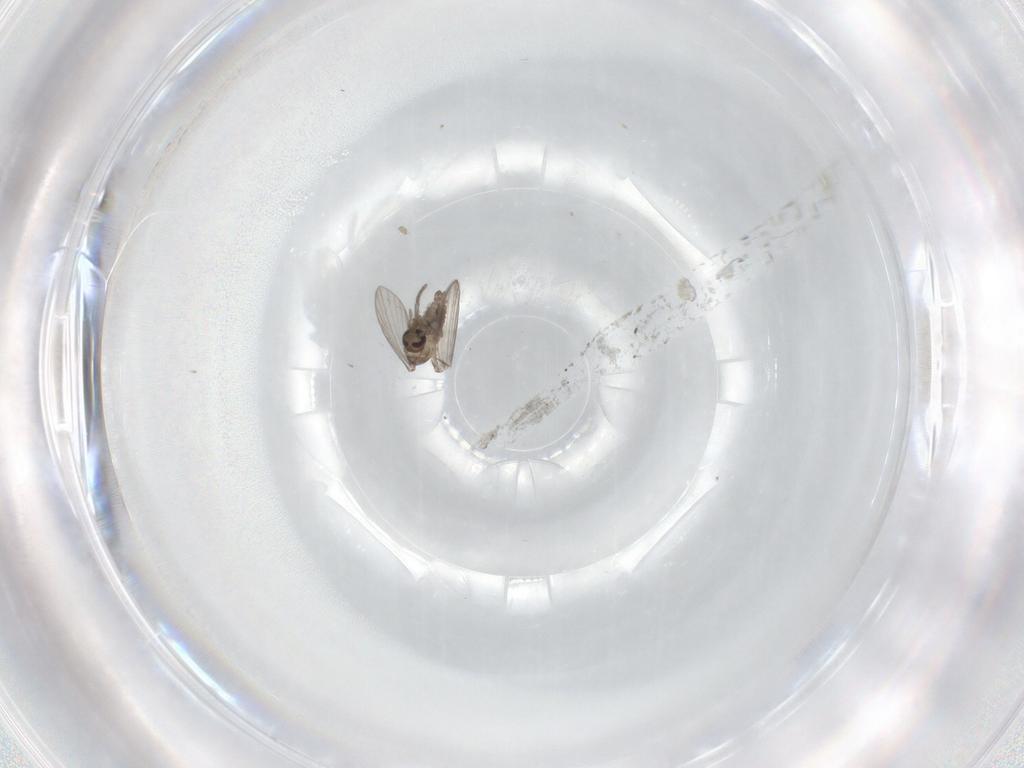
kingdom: Animalia
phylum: Arthropoda
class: Insecta
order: Diptera
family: Psychodidae
